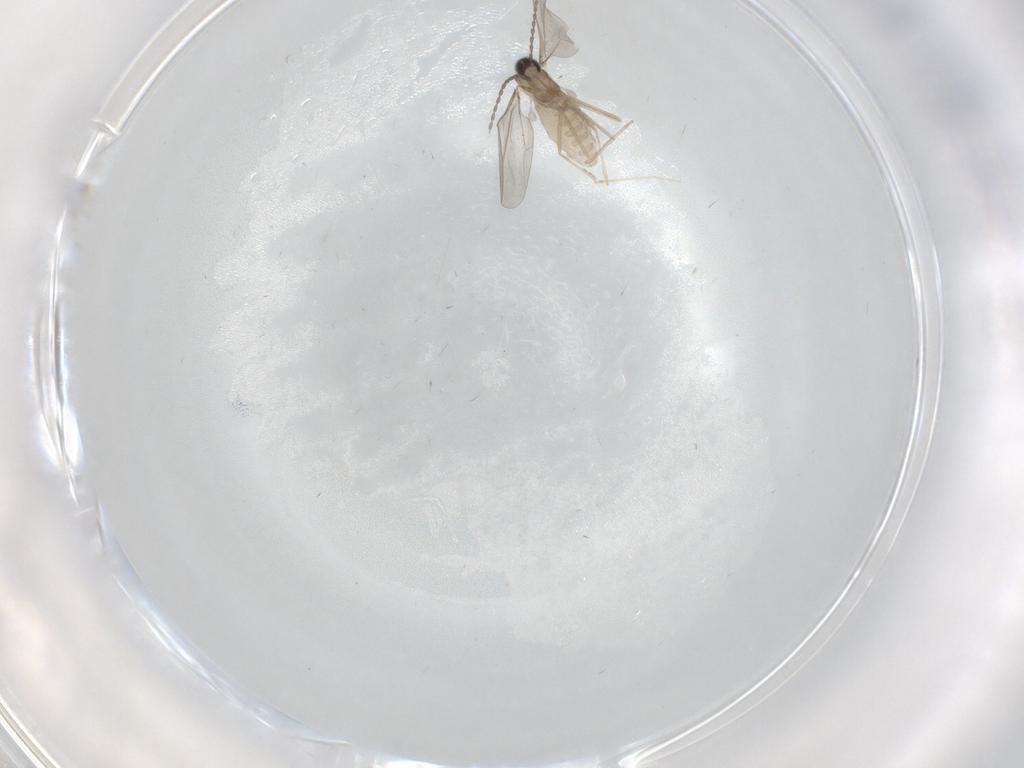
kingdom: Animalia
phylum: Arthropoda
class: Insecta
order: Diptera
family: Cecidomyiidae
